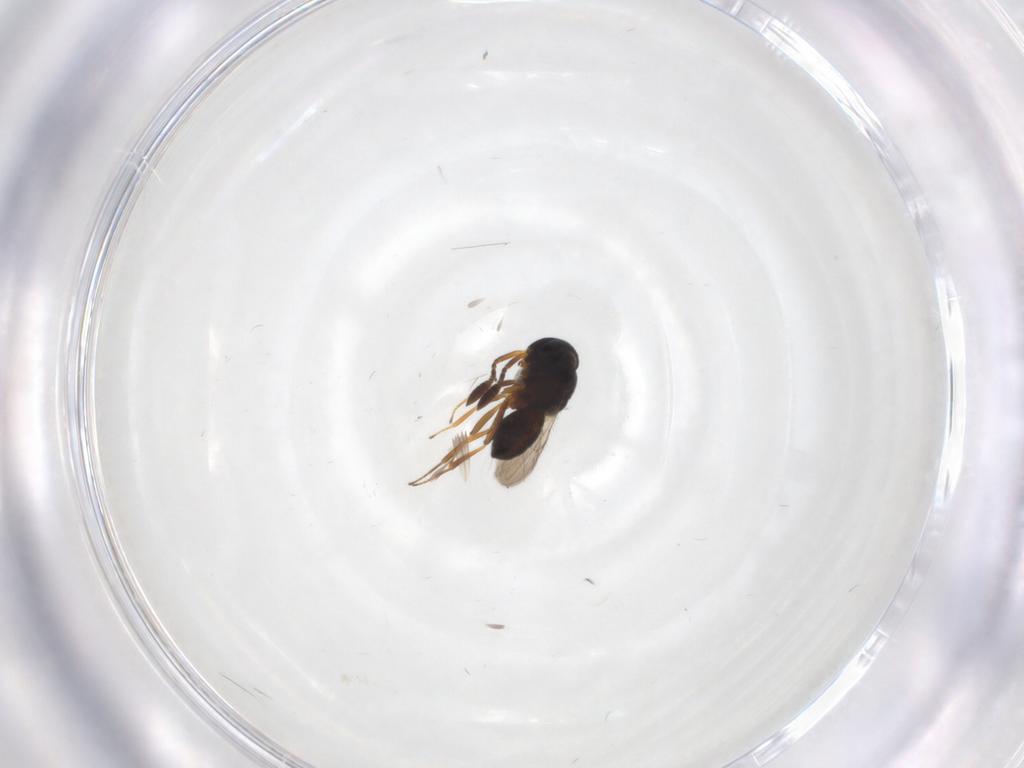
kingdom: Animalia
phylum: Arthropoda
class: Insecta
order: Hymenoptera
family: Scelionidae
